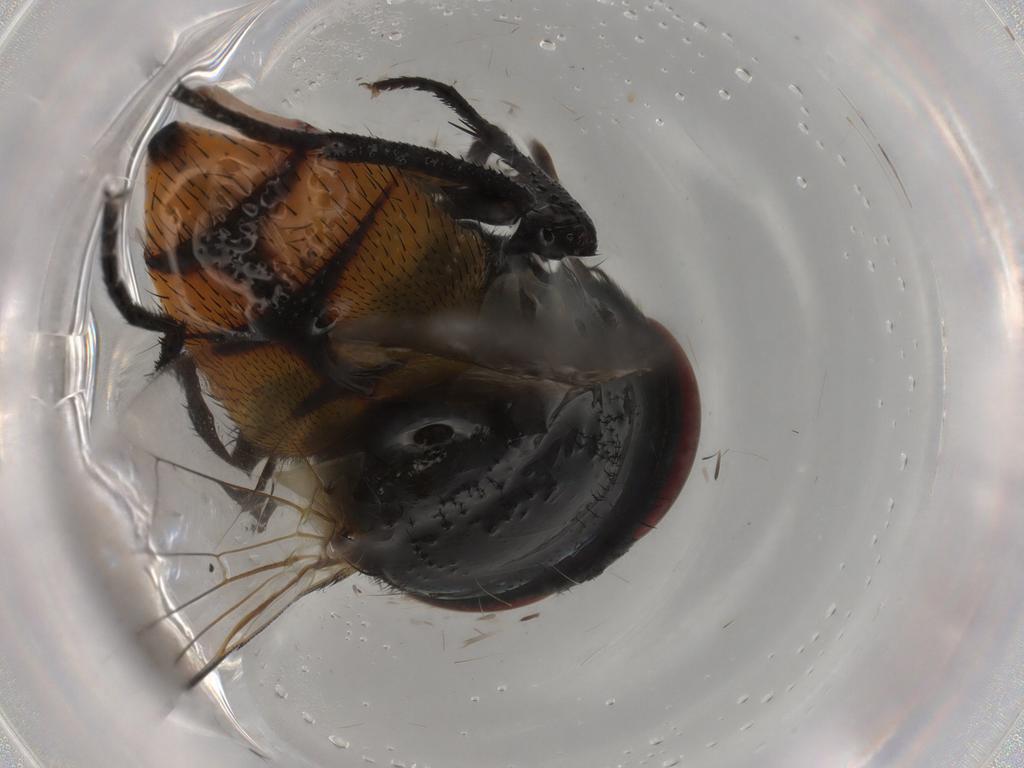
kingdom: Animalia
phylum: Arthropoda
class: Insecta
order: Diptera
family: Cecidomyiidae
